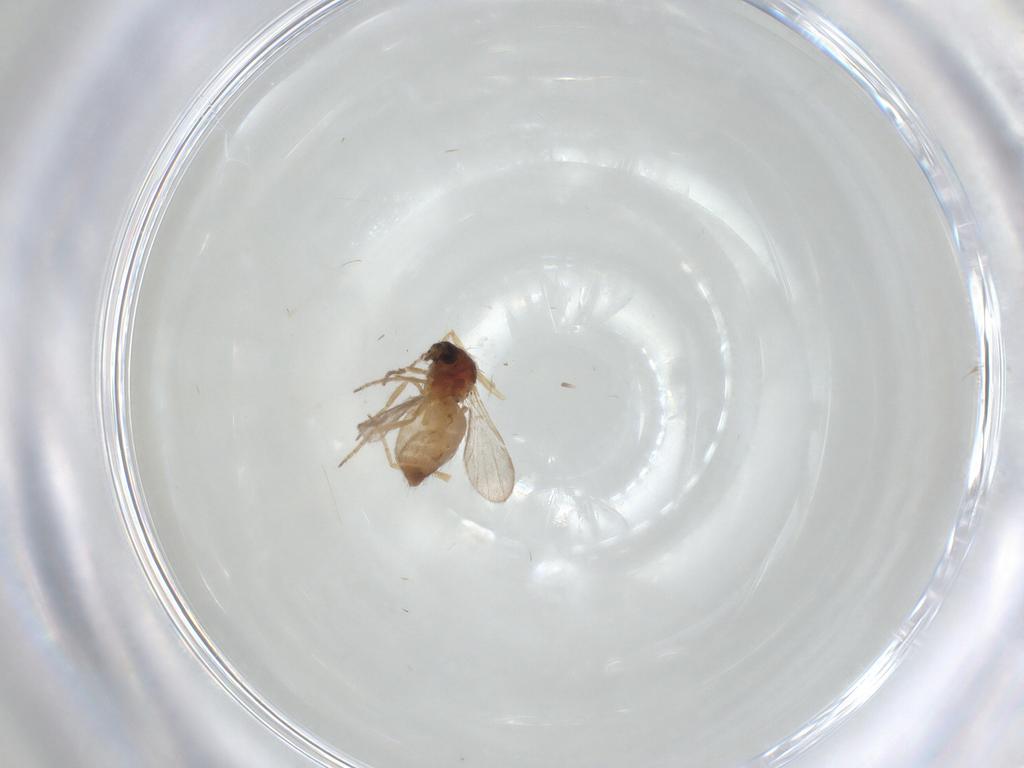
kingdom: Animalia
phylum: Arthropoda
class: Insecta
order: Diptera
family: Ceratopogonidae
